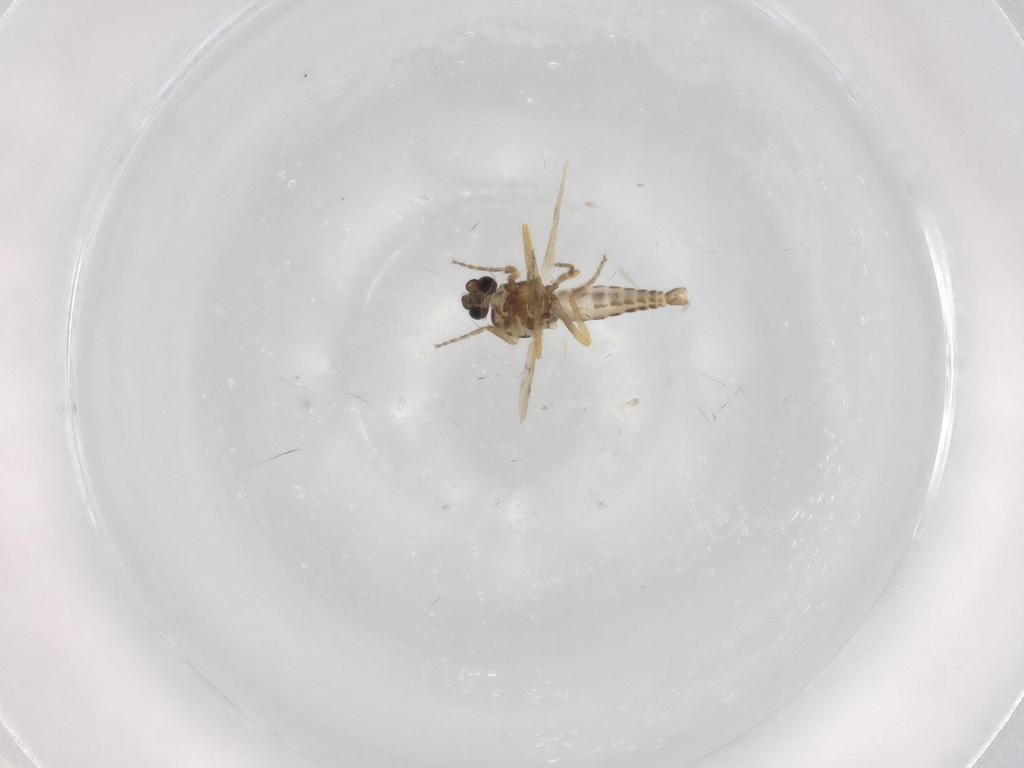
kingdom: Animalia
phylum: Arthropoda
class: Insecta
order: Diptera
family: Ceratopogonidae
